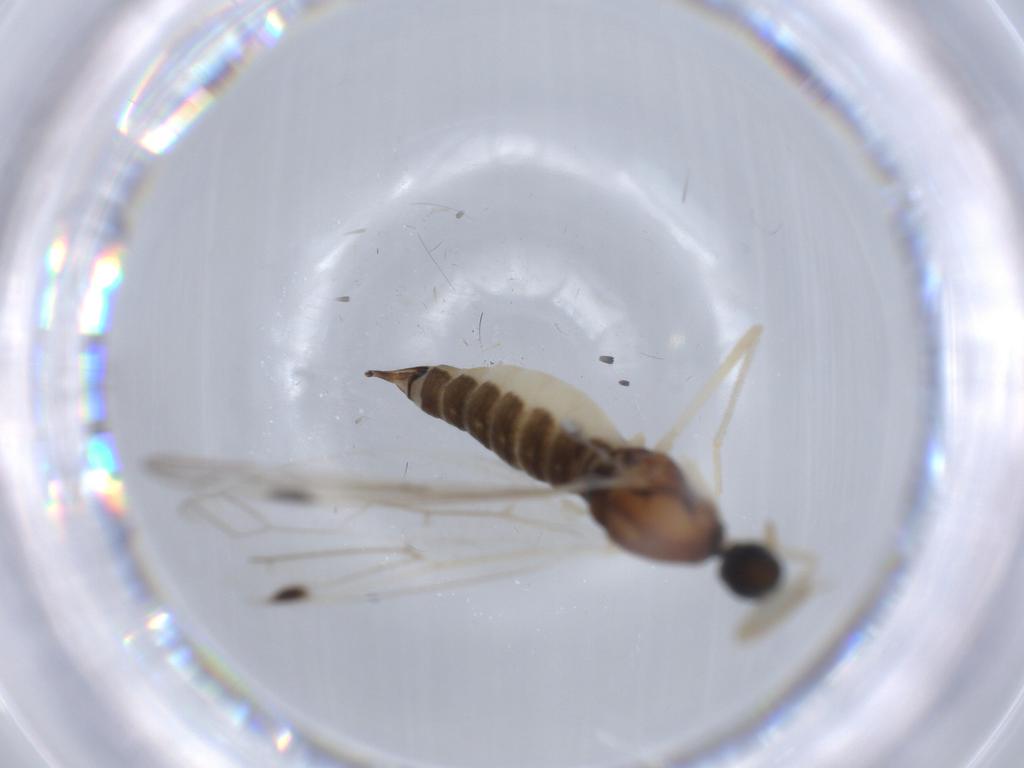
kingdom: Animalia
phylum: Arthropoda
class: Insecta
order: Diptera
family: Empididae
